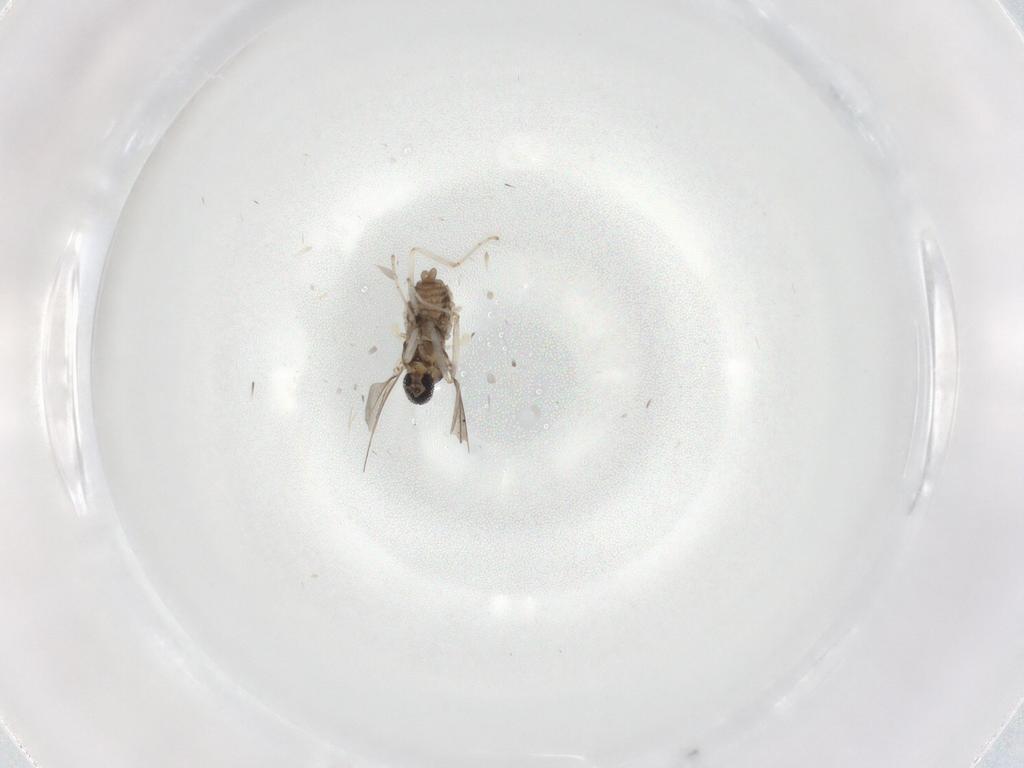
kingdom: Animalia
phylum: Arthropoda
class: Insecta
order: Diptera
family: Cecidomyiidae
